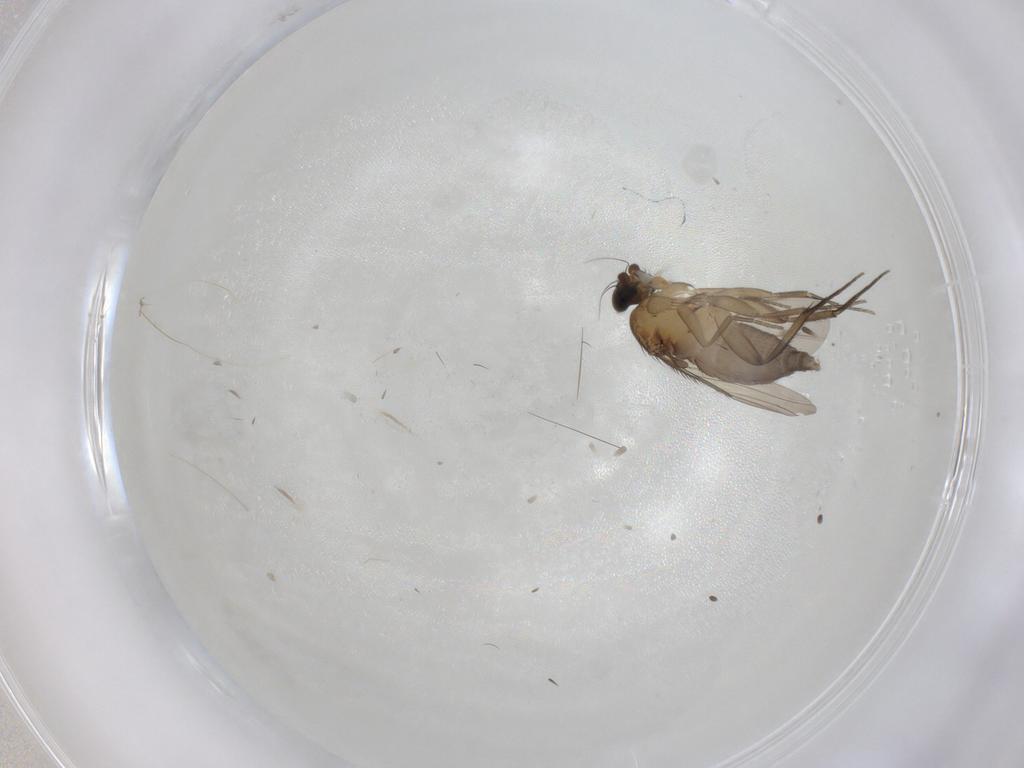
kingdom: Animalia
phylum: Arthropoda
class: Insecta
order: Diptera
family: Phoridae
